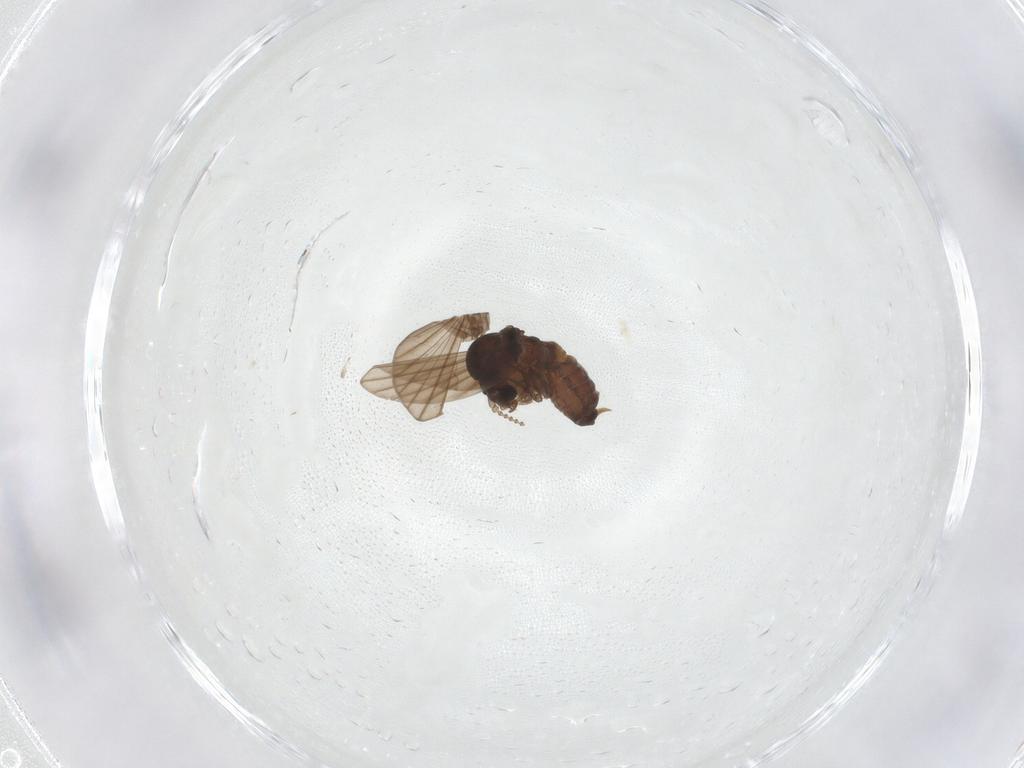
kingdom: Animalia
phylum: Arthropoda
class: Insecta
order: Diptera
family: Psychodidae
